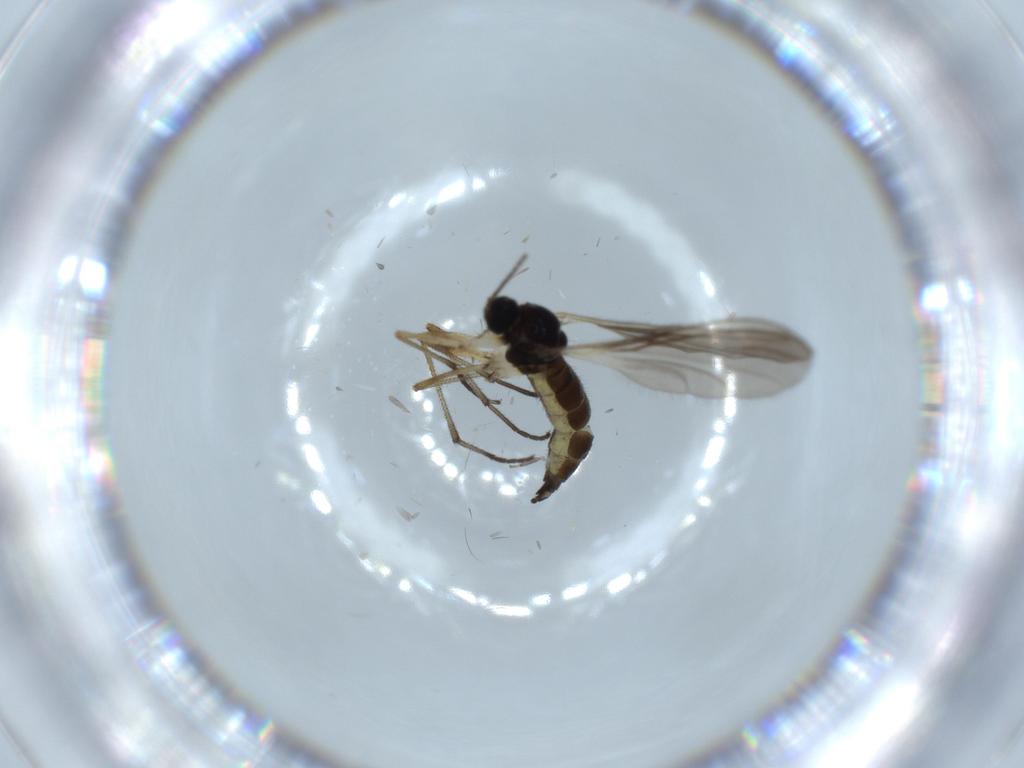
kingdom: Animalia
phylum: Arthropoda
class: Insecta
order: Diptera
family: Sciaridae
